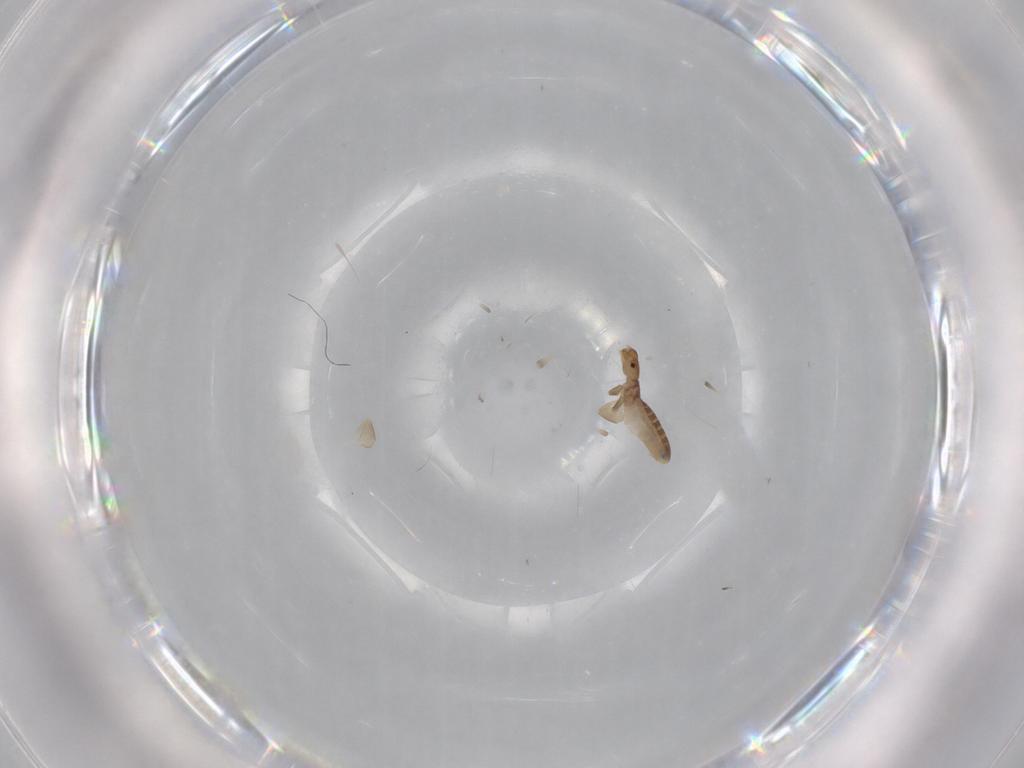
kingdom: Animalia
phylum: Arthropoda
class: Insecta
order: Psocodea
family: Liposcelididae
